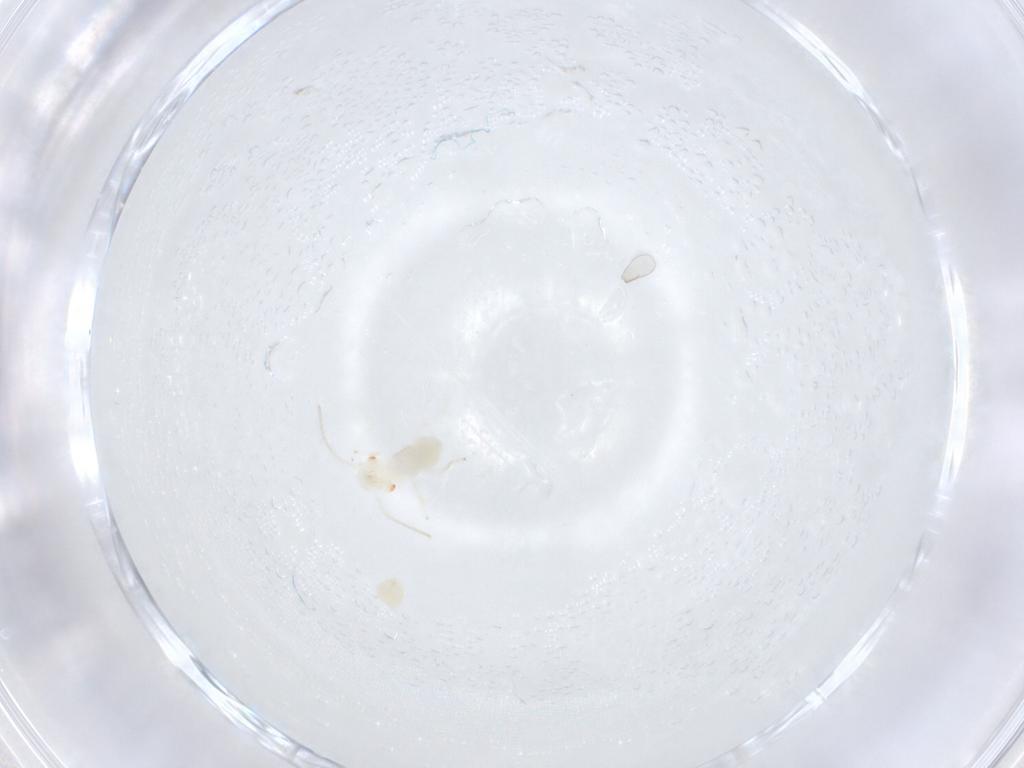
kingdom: Animalia
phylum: Arthropoda
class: Insecta
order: Psocodea
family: Caeciliusidae
